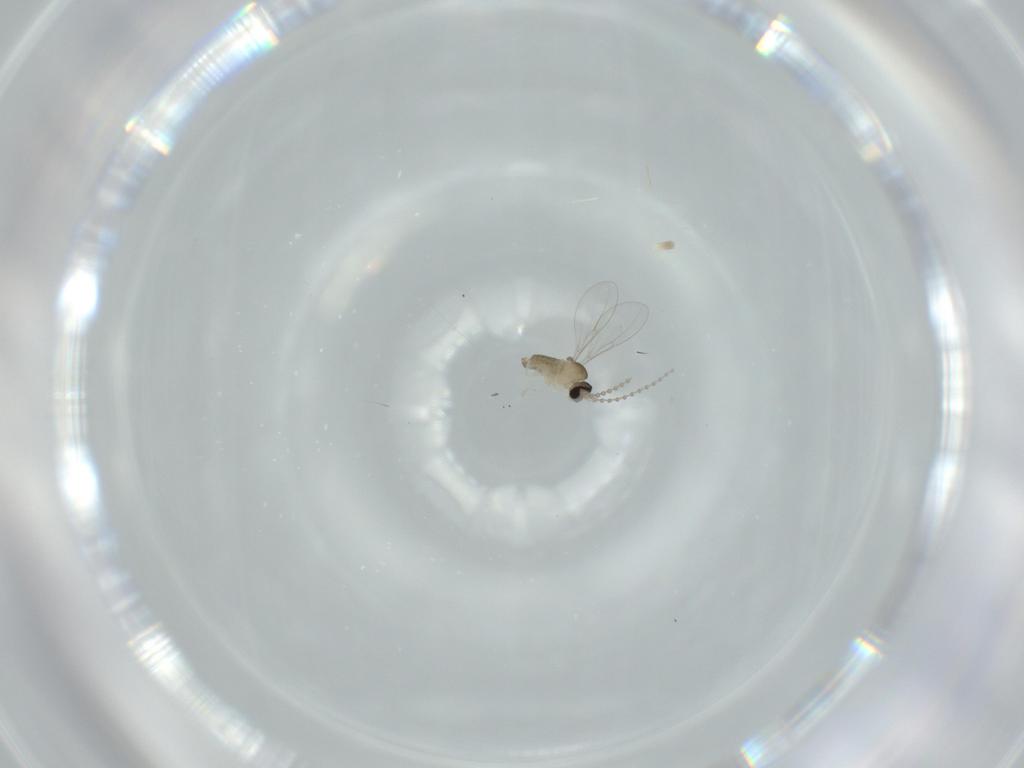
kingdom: Animalia
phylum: Arthropoda
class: Insecta
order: Diptera
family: Cecidomyiidae
